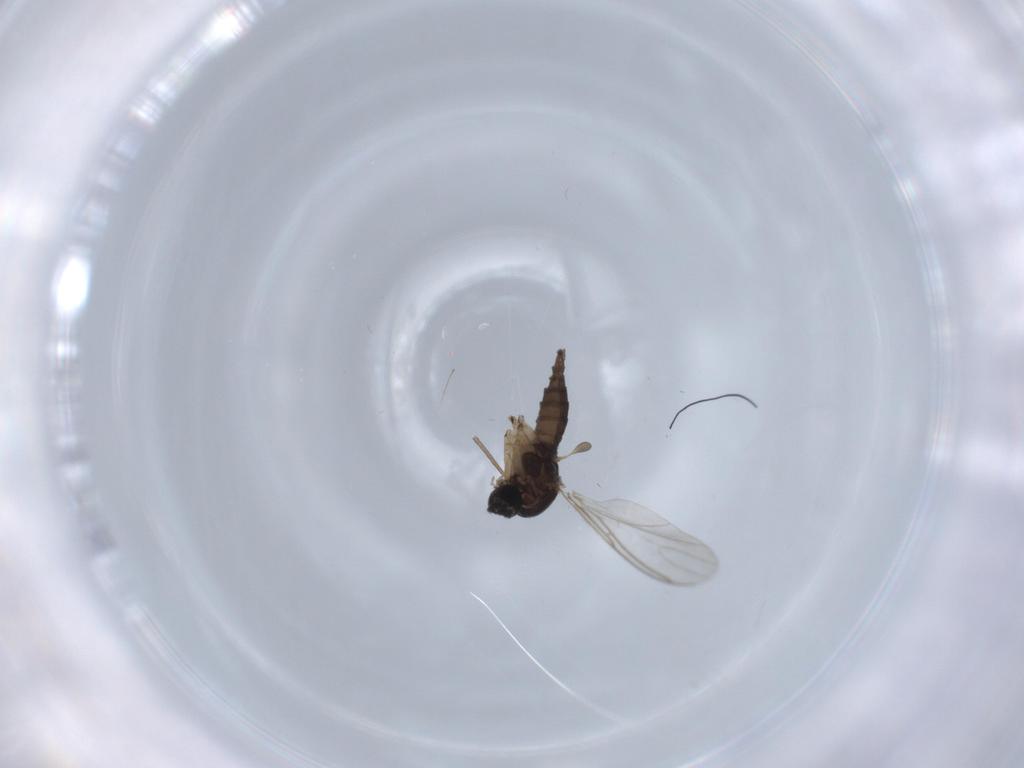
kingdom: Animalia
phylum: Arthropoda
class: Insecta
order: Diptera
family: Sciaridae
